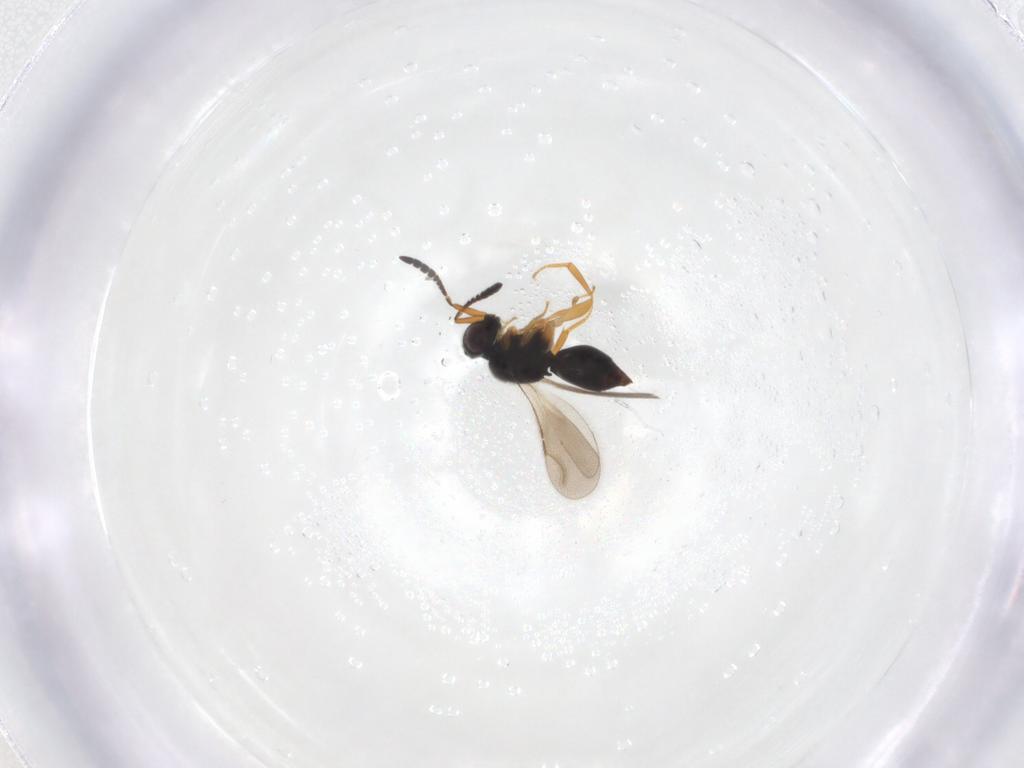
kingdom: Animalia
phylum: Arthropoda
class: Insecta
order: Hymenoptera
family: Ceraphronidae
